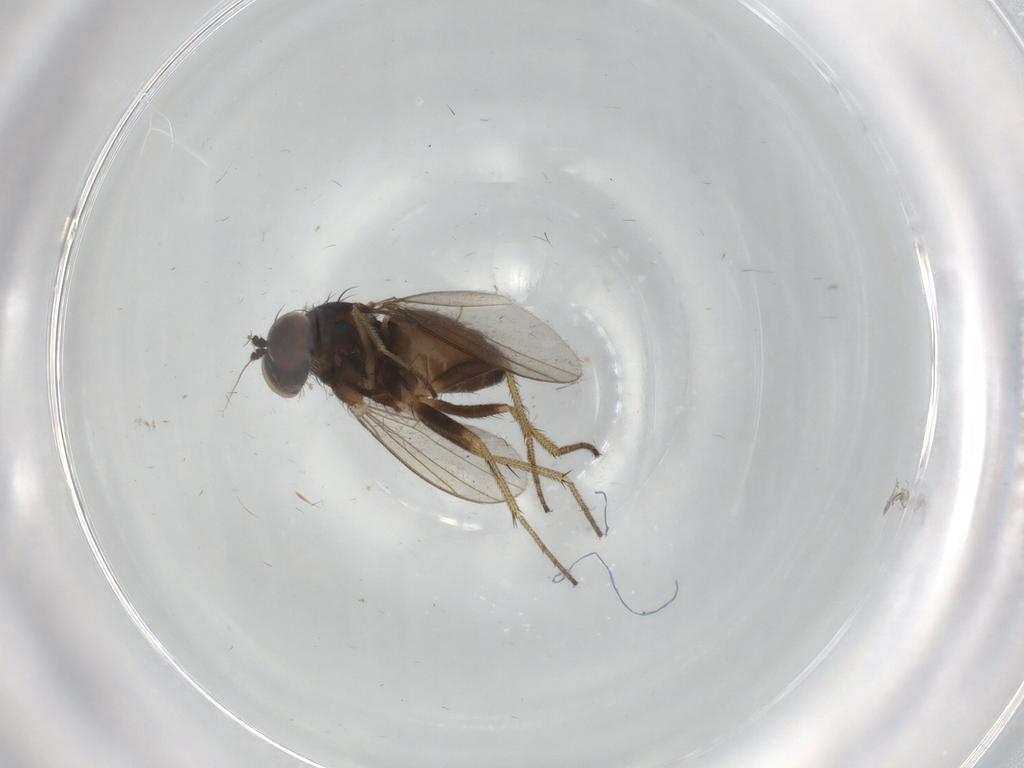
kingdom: Animalia
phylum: Arthropoda
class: Insecta
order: Diptera
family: Dolichopodidae
